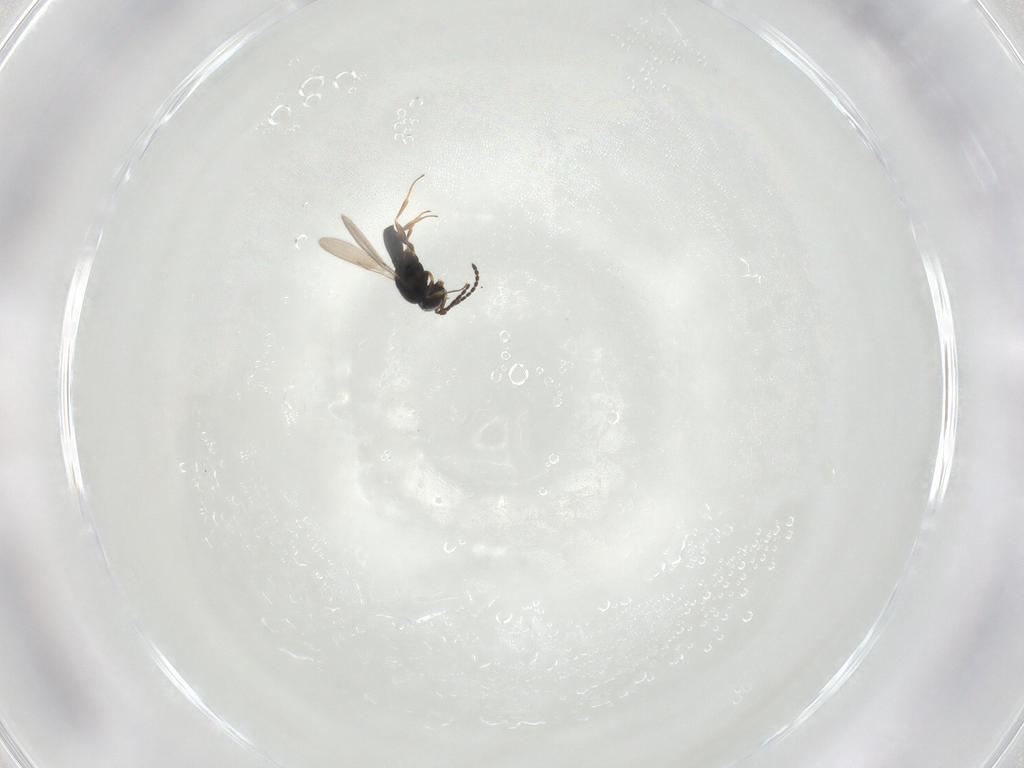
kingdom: Animalia
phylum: Arthropoda
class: Insecta
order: Hymenoptera
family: Scelionidae
